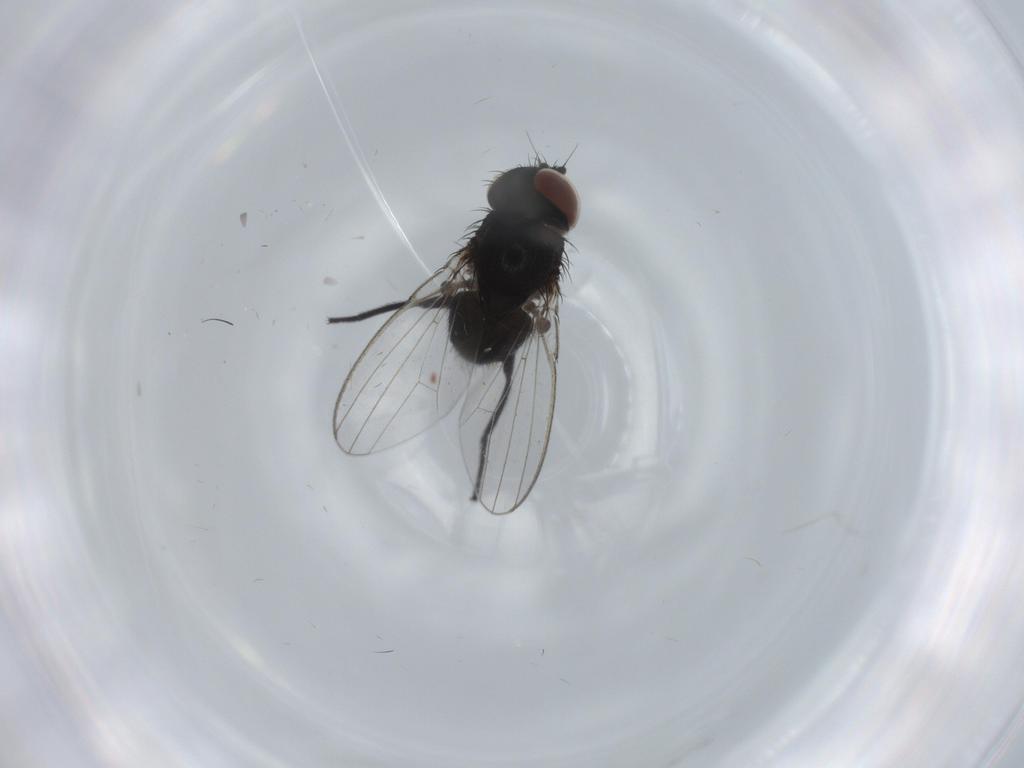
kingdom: Animalia
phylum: Arthropoda
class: Insecta
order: Diptera
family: Milichiidae
